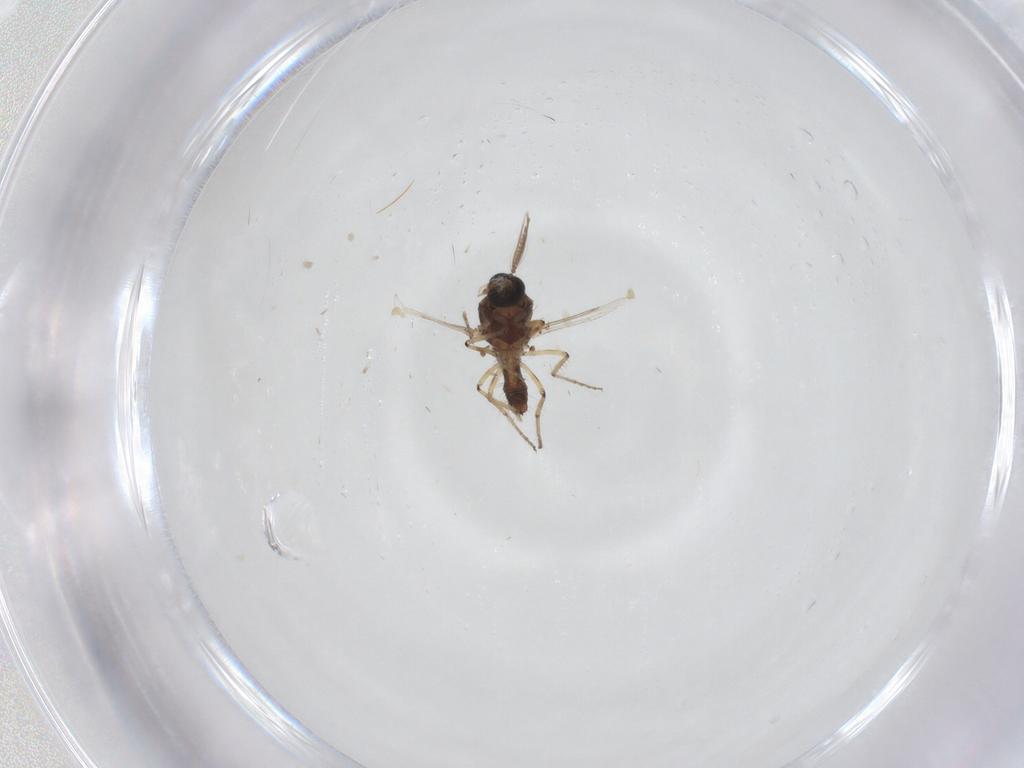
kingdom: Animalia
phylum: Arthropoda
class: Insecta
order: Diptera
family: Ceratopogonidae
